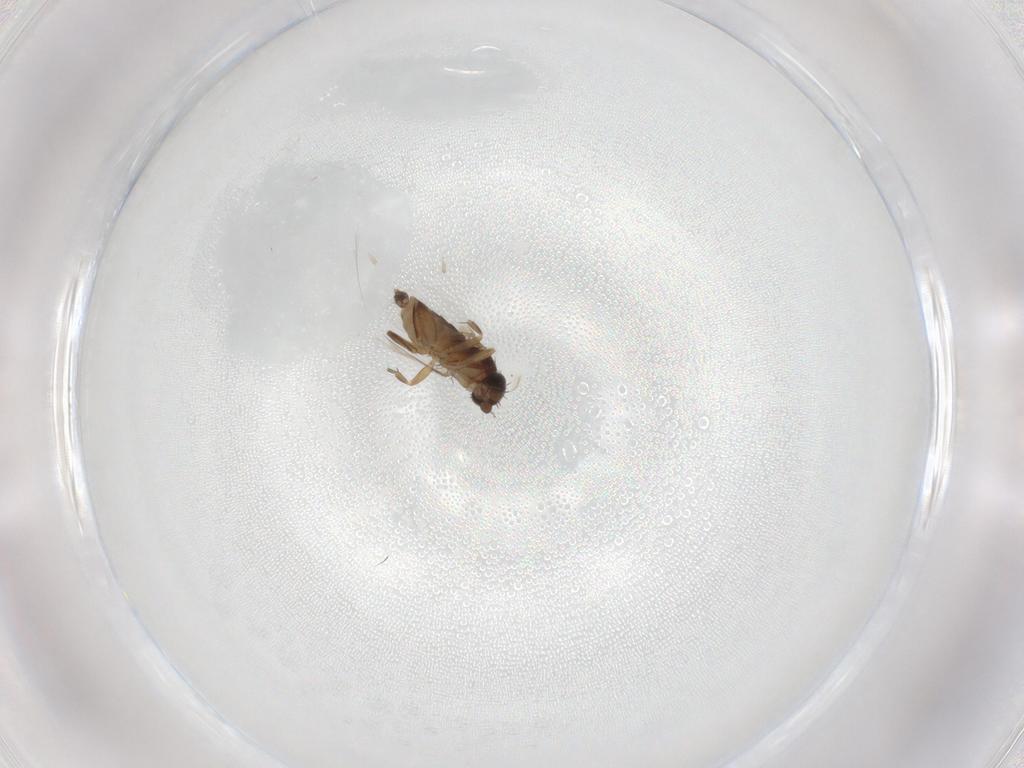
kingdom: Animalia
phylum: Arthropoda
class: Insecta
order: Diptera
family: Phoridae
